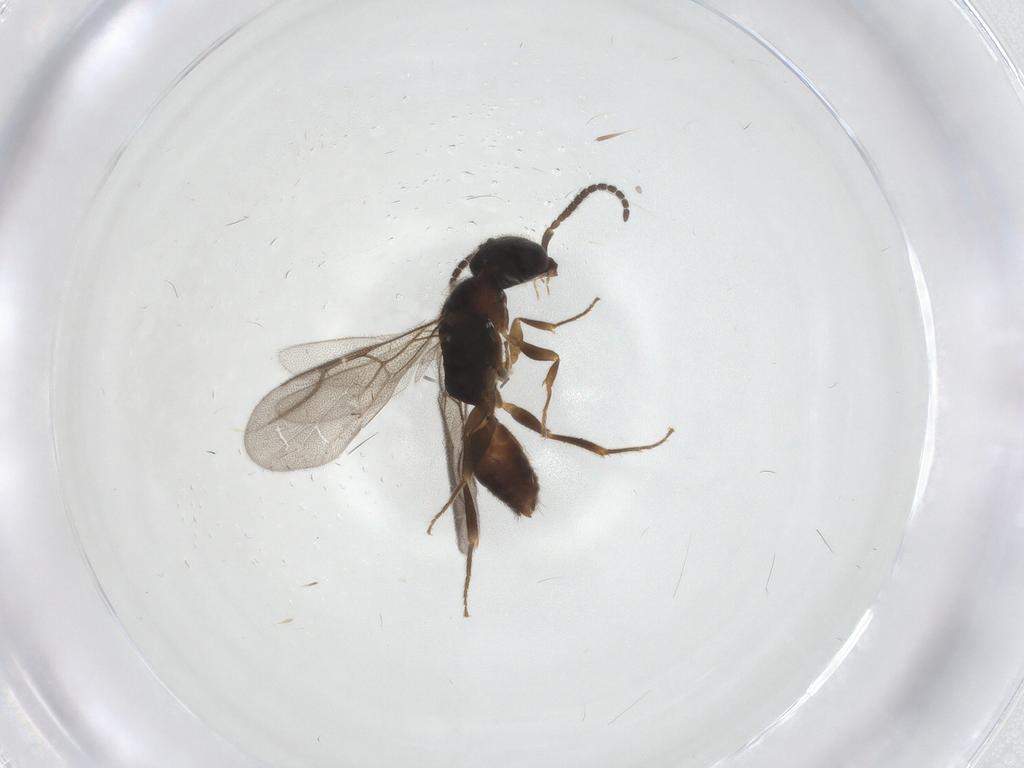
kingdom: Animalia
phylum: Arthropoda
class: Insecta
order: Hymenoptera
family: Bethylidae
